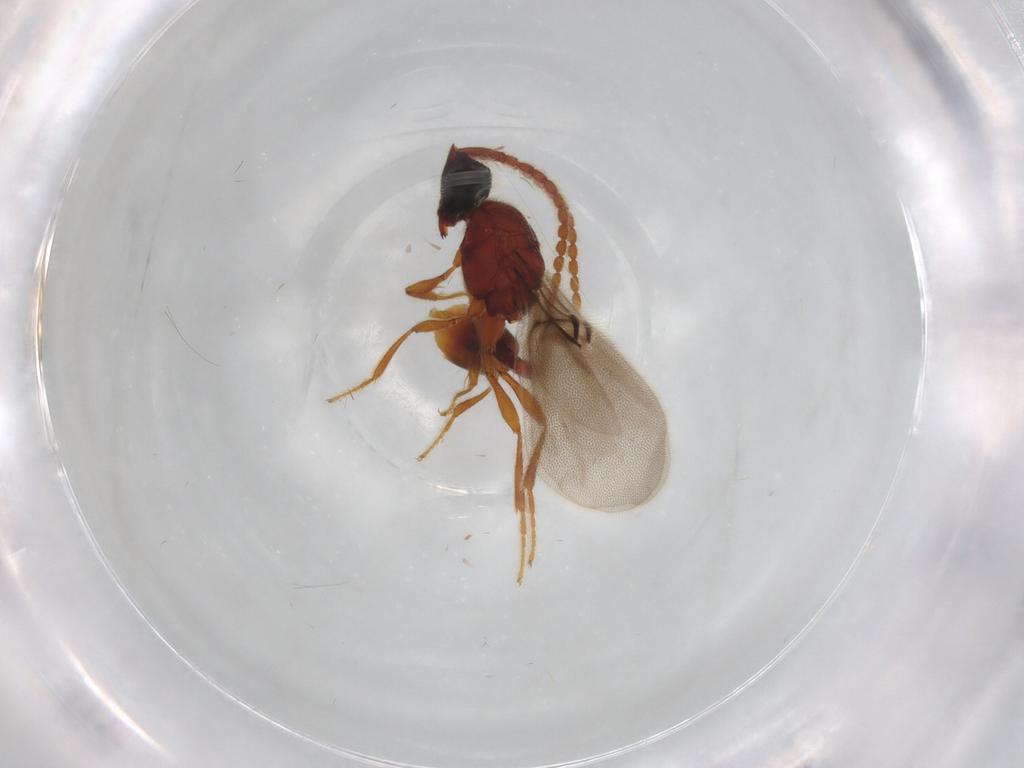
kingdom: Animalia
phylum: Arthropoda
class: Insecta
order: Hymenoptera
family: Diapriidae
